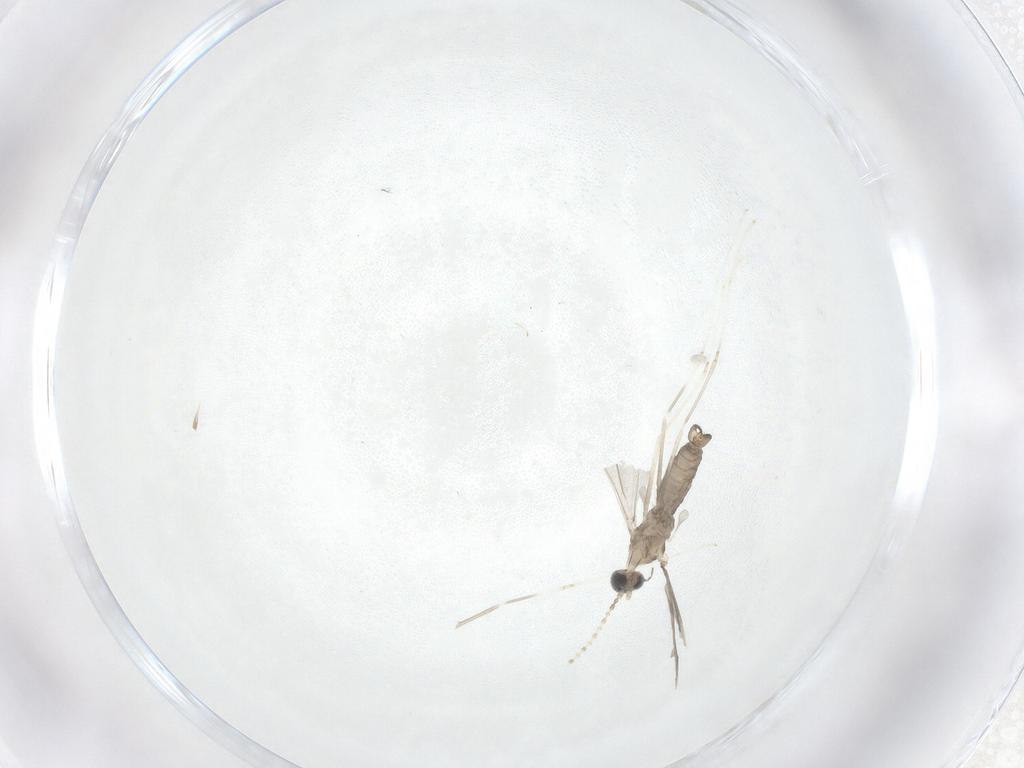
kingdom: Animalia
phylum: Arthropoda
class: Insecta
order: Diptera
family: Cecidomyiidae
